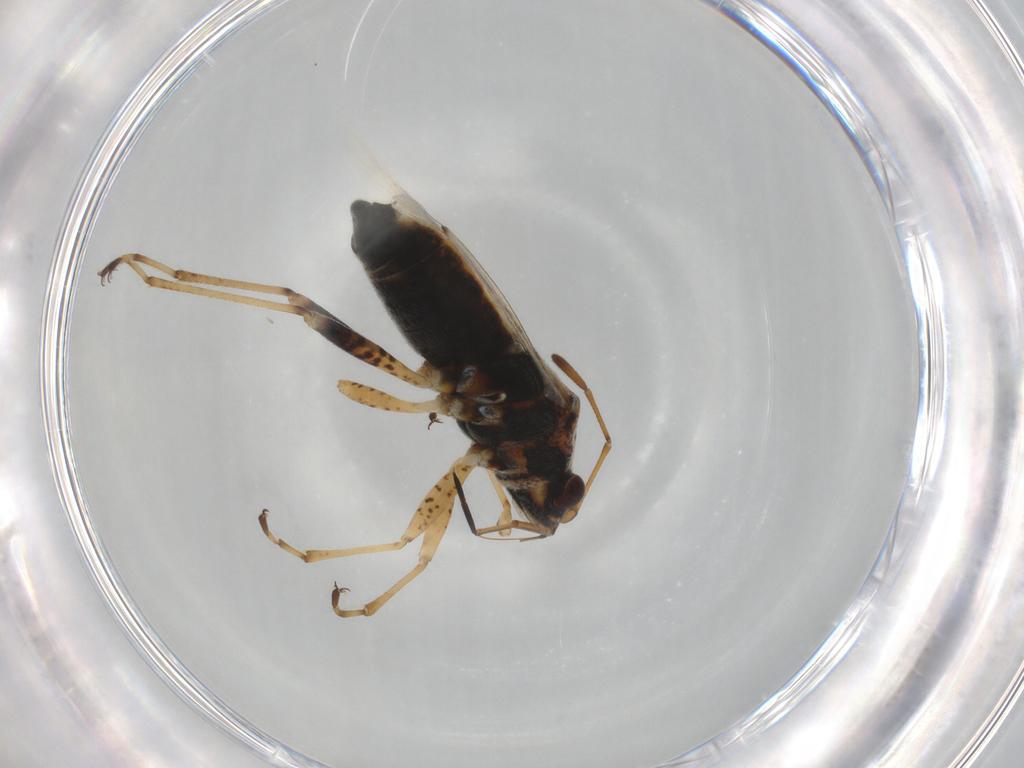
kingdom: Animalia
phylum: Arthropoda
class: Insecta
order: Hemiptera
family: Lygaeidae
